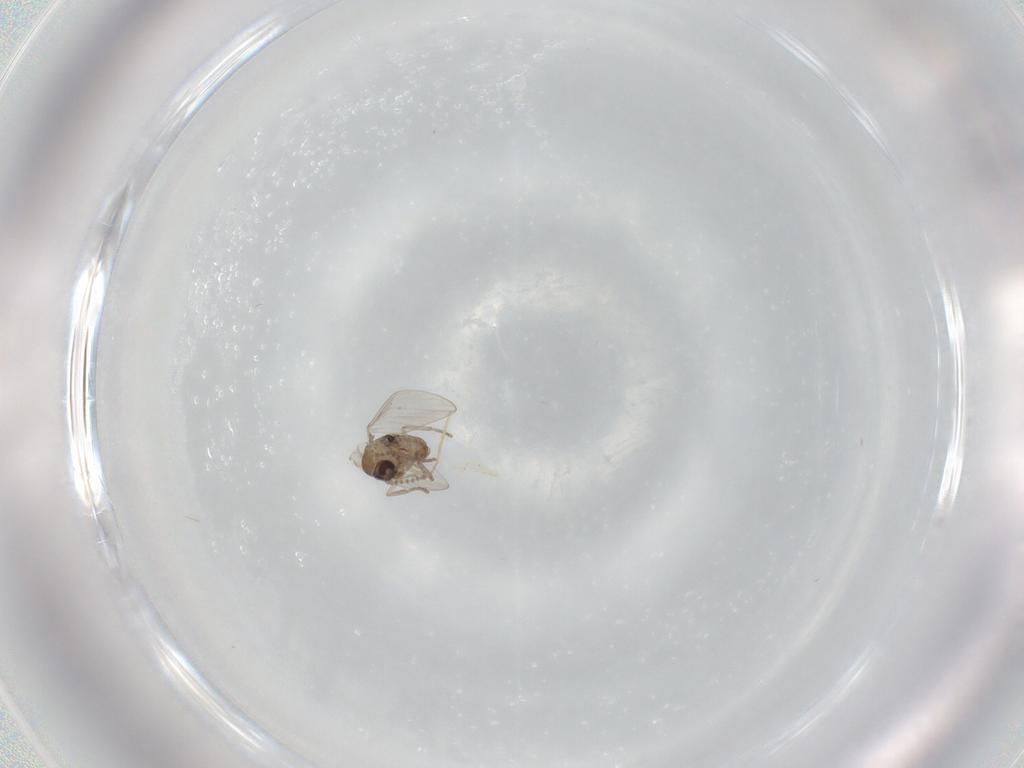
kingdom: Animalia
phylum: Arthropoda
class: Insecta
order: Diptera
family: Psychodidae
